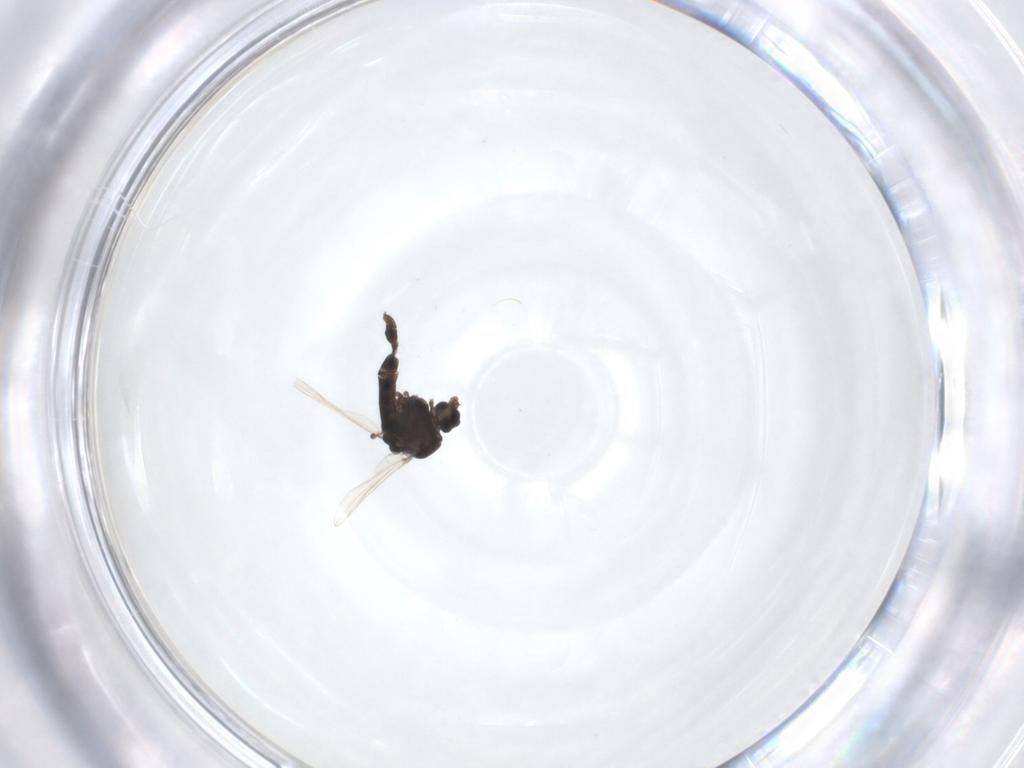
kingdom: Animalia
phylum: Arthropoda
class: Insecta
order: Diptera
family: Chironomidae
